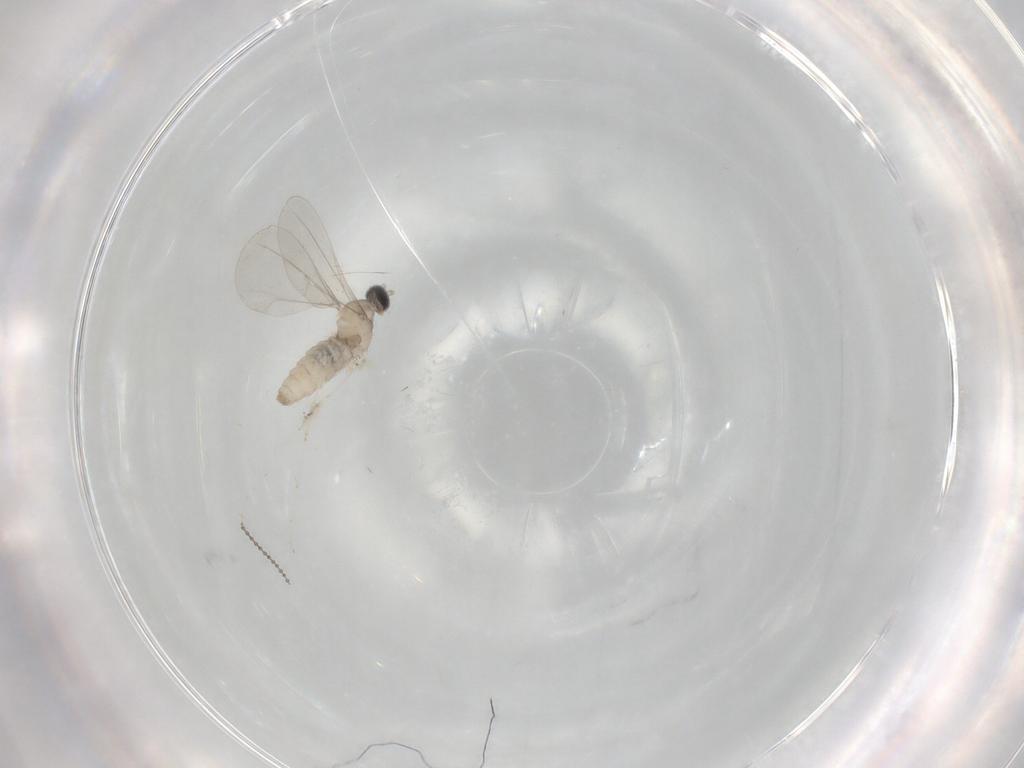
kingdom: Animalia
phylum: Arthropoda
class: Insecta
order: Diptera
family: Cecidomyiidae
